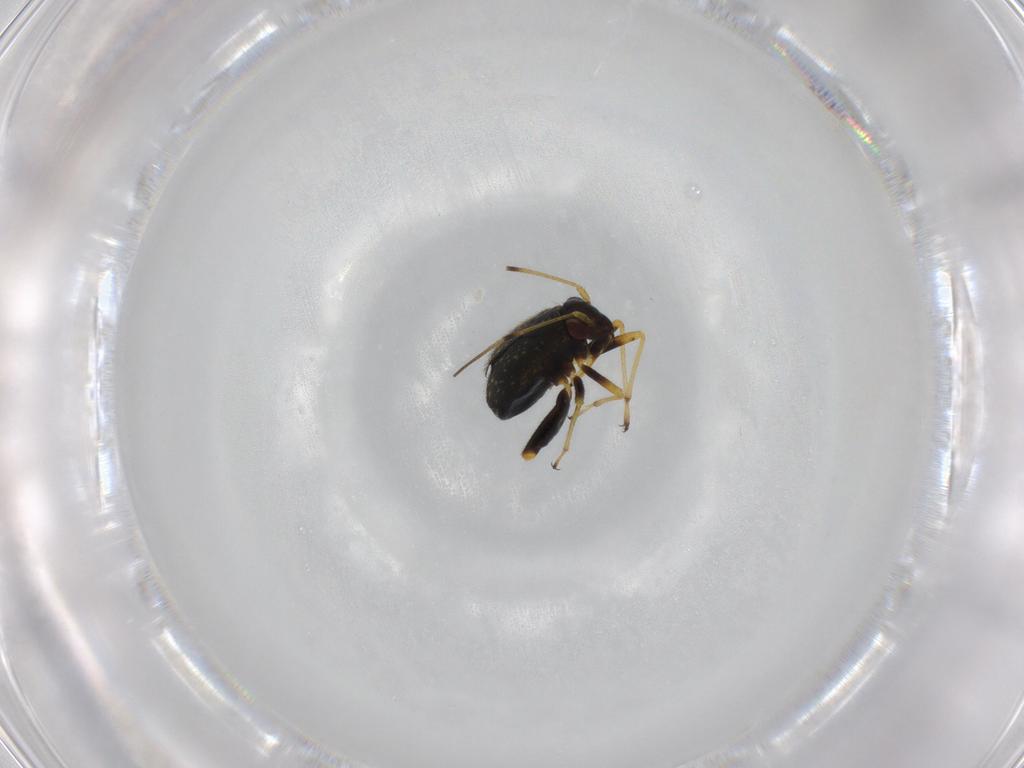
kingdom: Animalia
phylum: Arthropoda
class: Insecta
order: Hemiptera
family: Miridae
